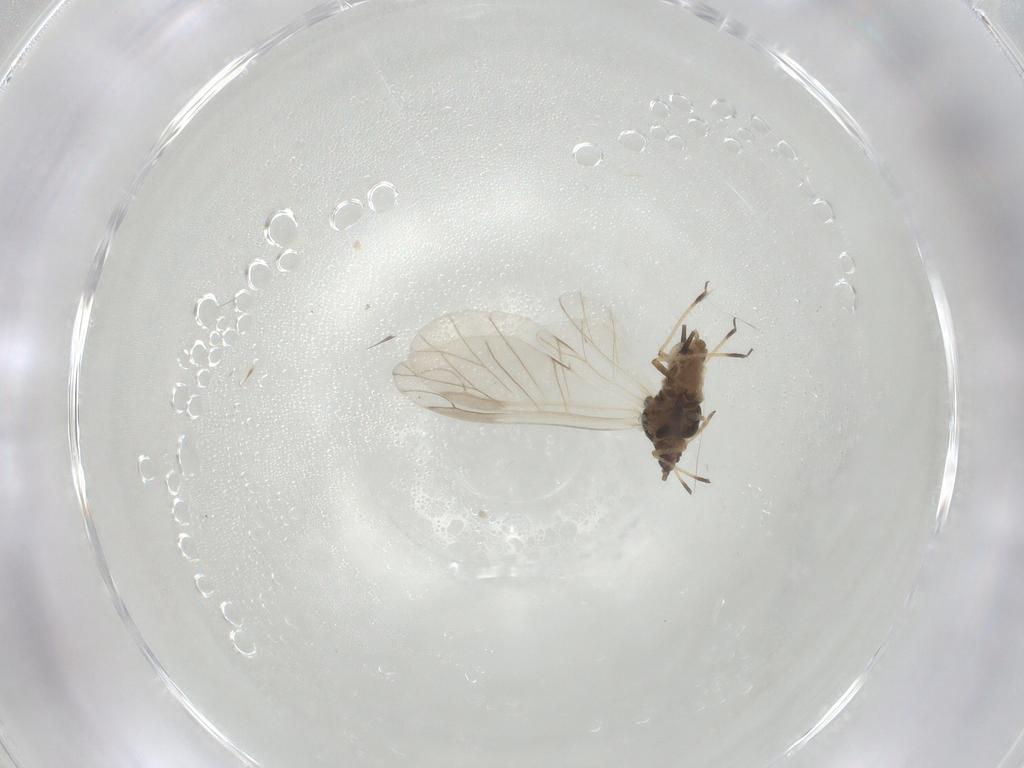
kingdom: Animalia
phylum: Arthropoda
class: Insecta
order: Hemiptera
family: Aphididae
